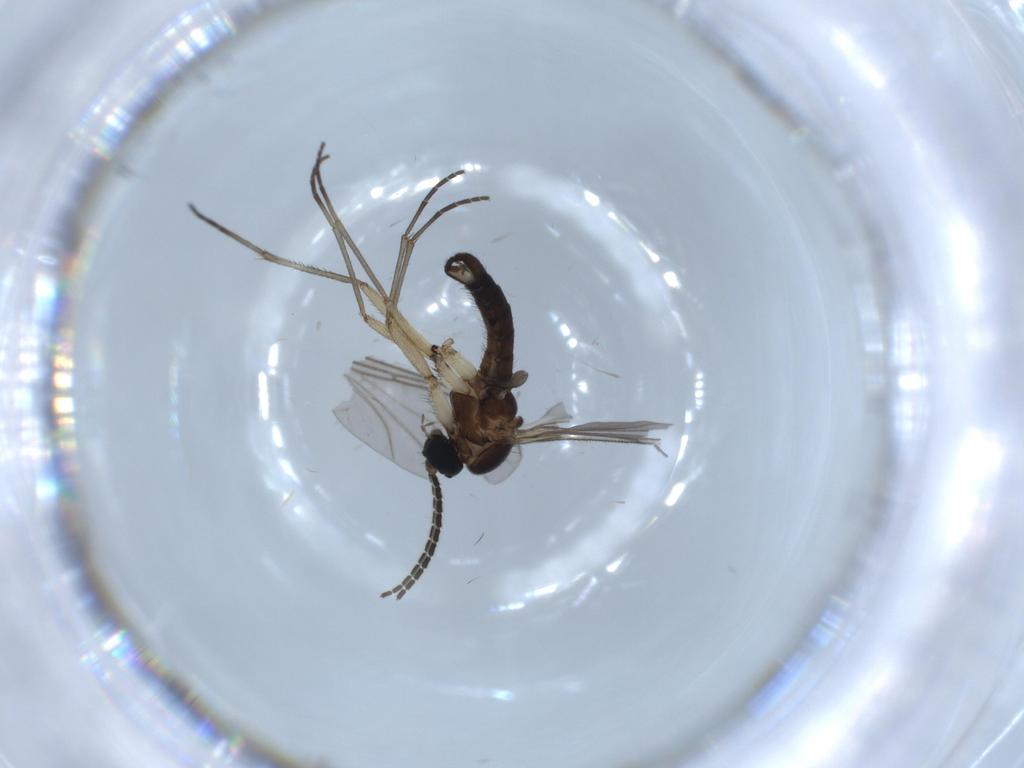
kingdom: Animalia
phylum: Arthropoda
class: Insecta
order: Diptera
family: Sciaridae
